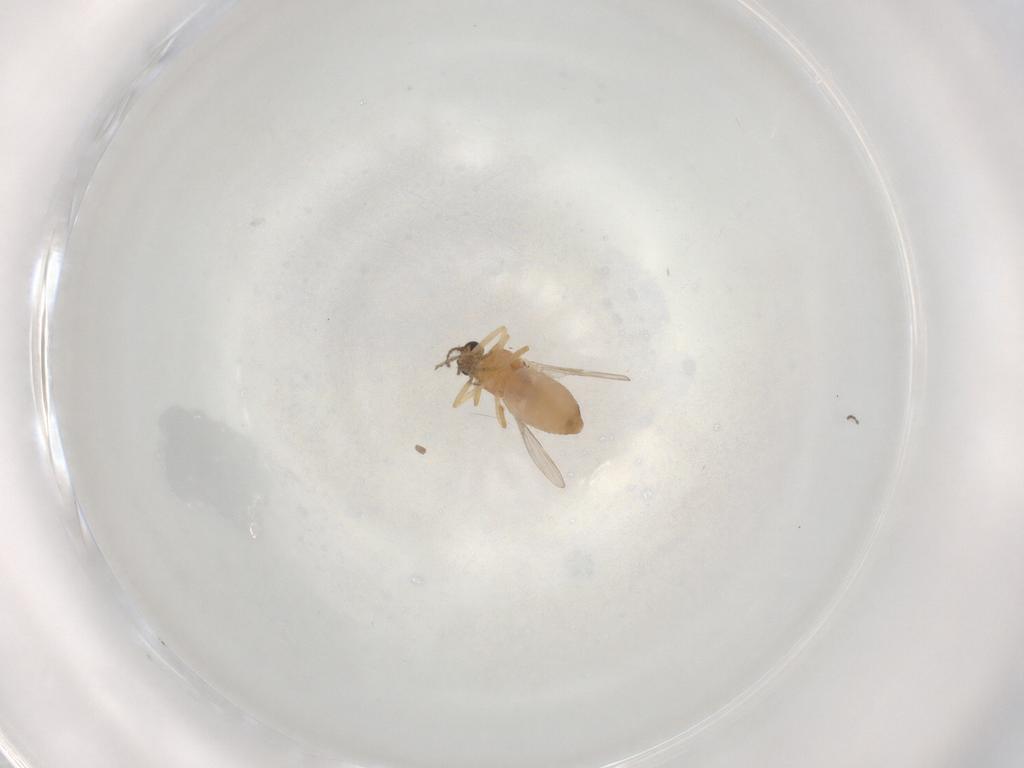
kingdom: Animalia
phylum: Arthropoda
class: Insecta
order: Diptera
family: Ceratopogonidae
